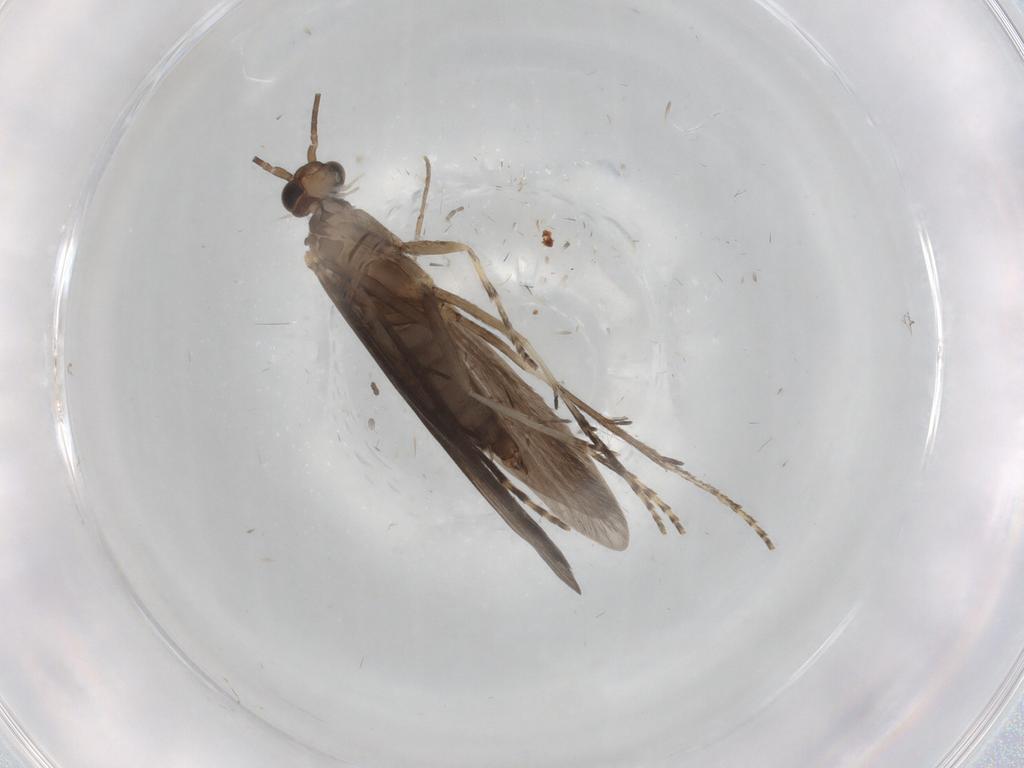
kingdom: Animalia
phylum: Arthropoda
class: Insecta
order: Trichoptera
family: Xiphocentronidae
